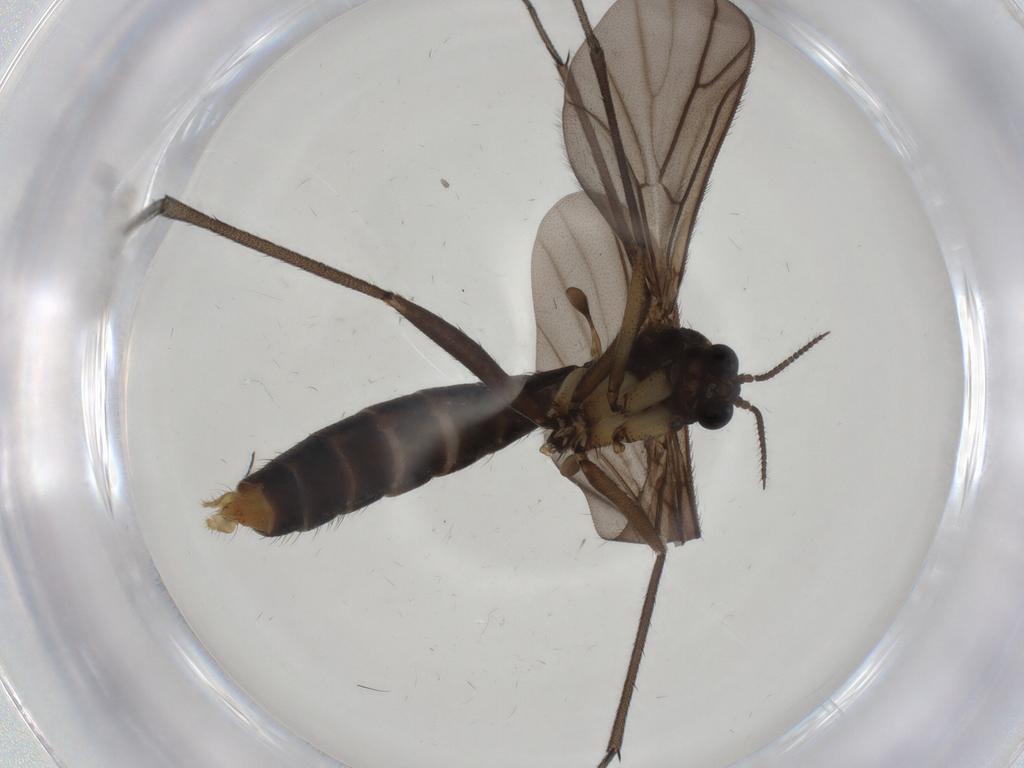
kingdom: Animalia
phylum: Arthropoda
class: Insecta
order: Diptera
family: Ditomyiidae
